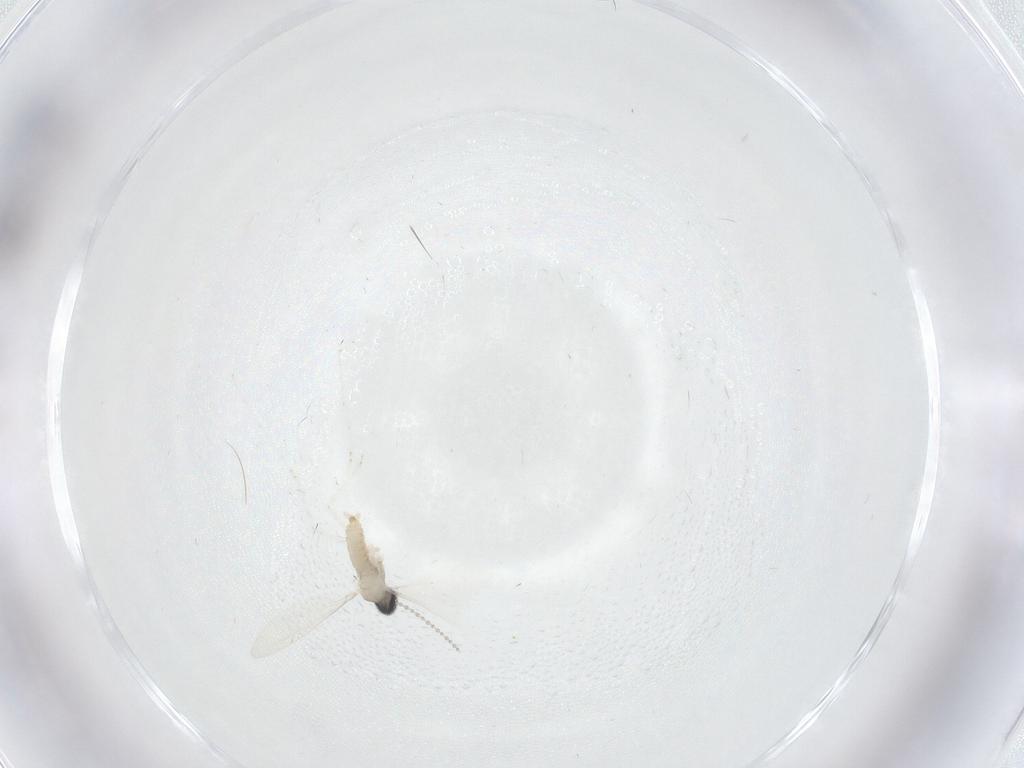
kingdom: Animalia
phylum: Arthropoda
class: Insecta
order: Diptera
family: Cecidomyiidae
